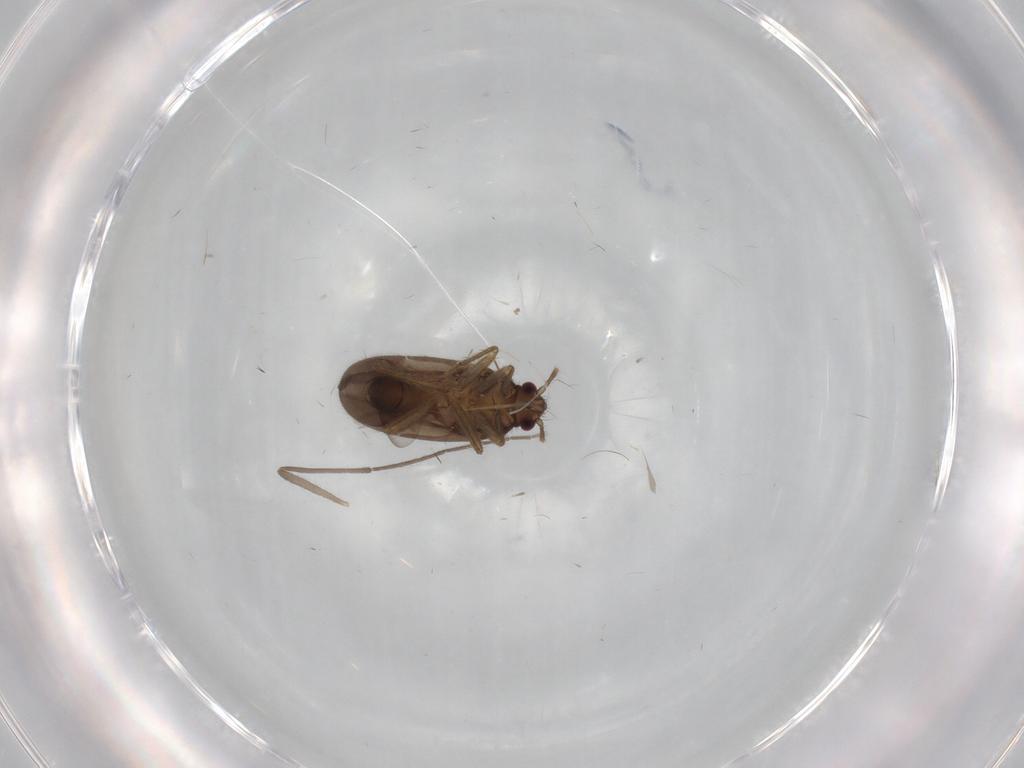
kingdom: Animalia
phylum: Arthropoda
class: Insecta
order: Hemiptera
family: Ceratocombidae
